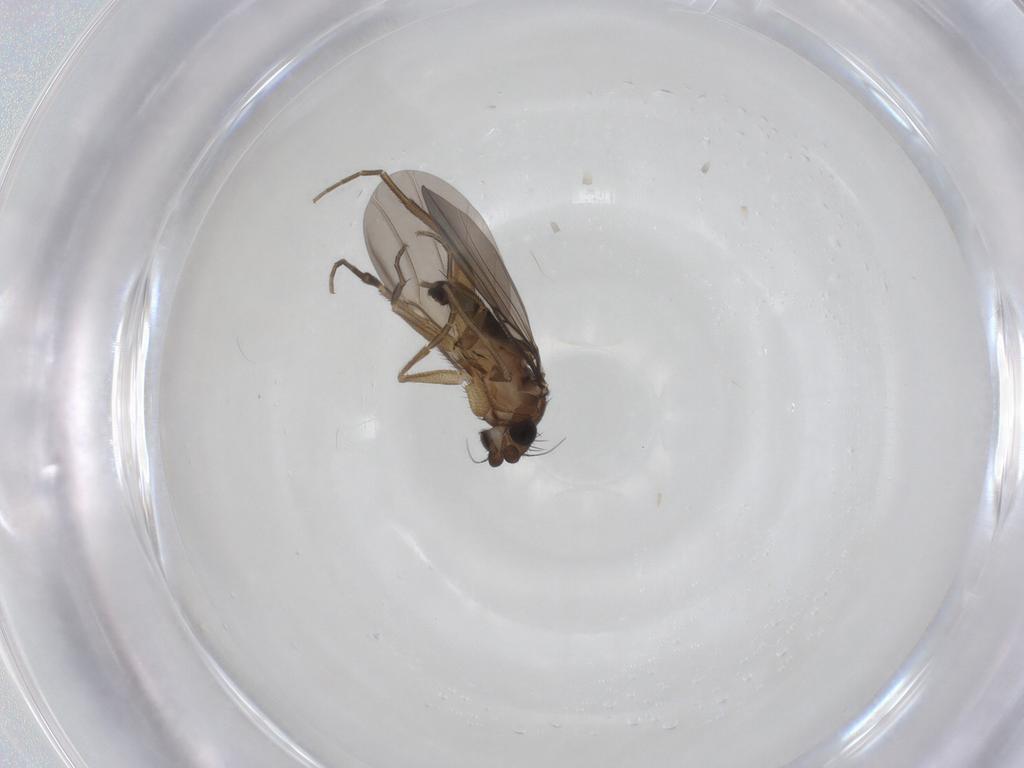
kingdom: Animalia
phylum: Arthropoda
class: Insecta
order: Diptera
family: Phoridae
